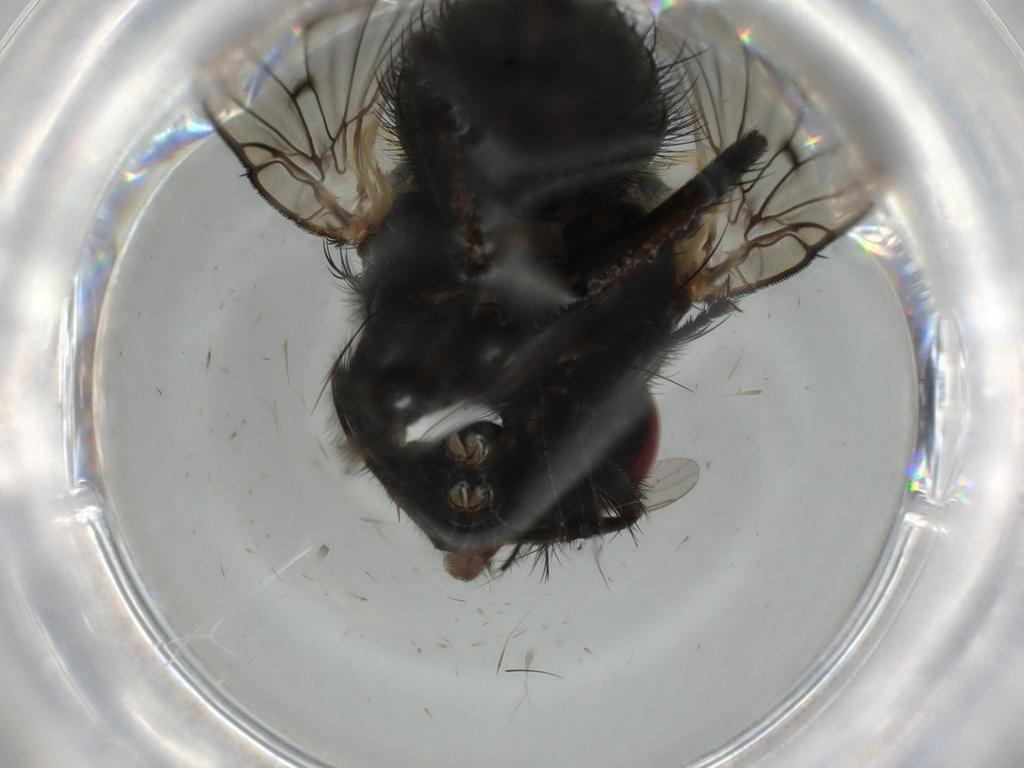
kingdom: Animalia
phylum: Arthropoda
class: Insecta
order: Diptera
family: Muscidae
